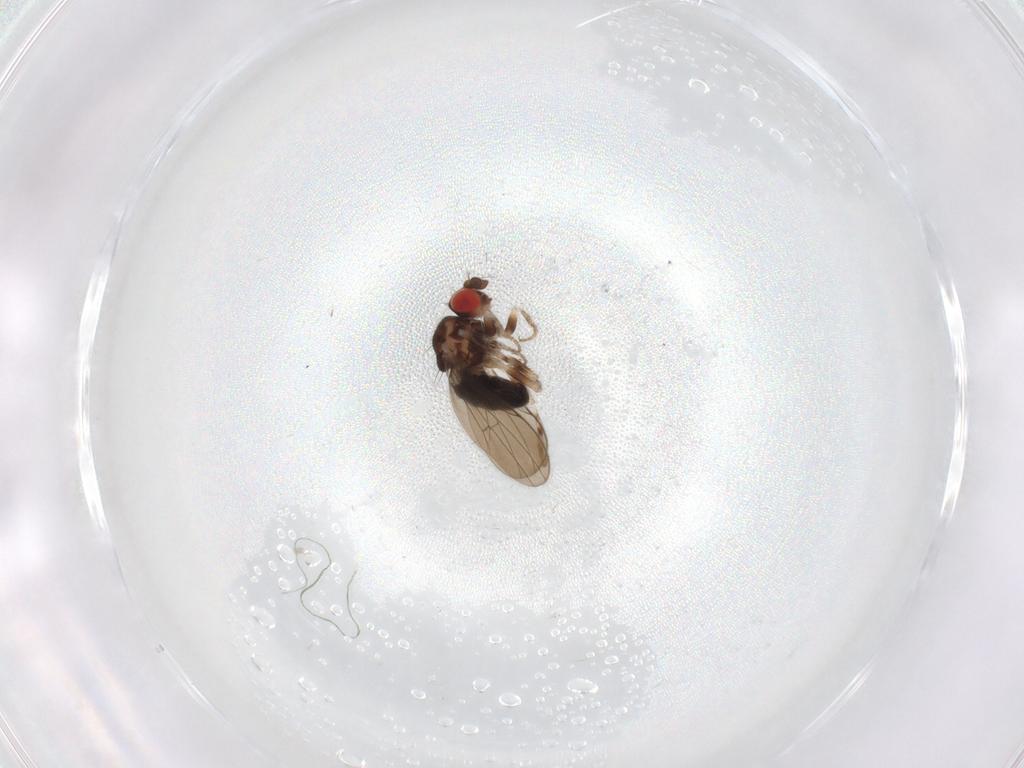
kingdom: Animalia
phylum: Arthropoda
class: Insecta
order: Diptera
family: Drosophilidae
